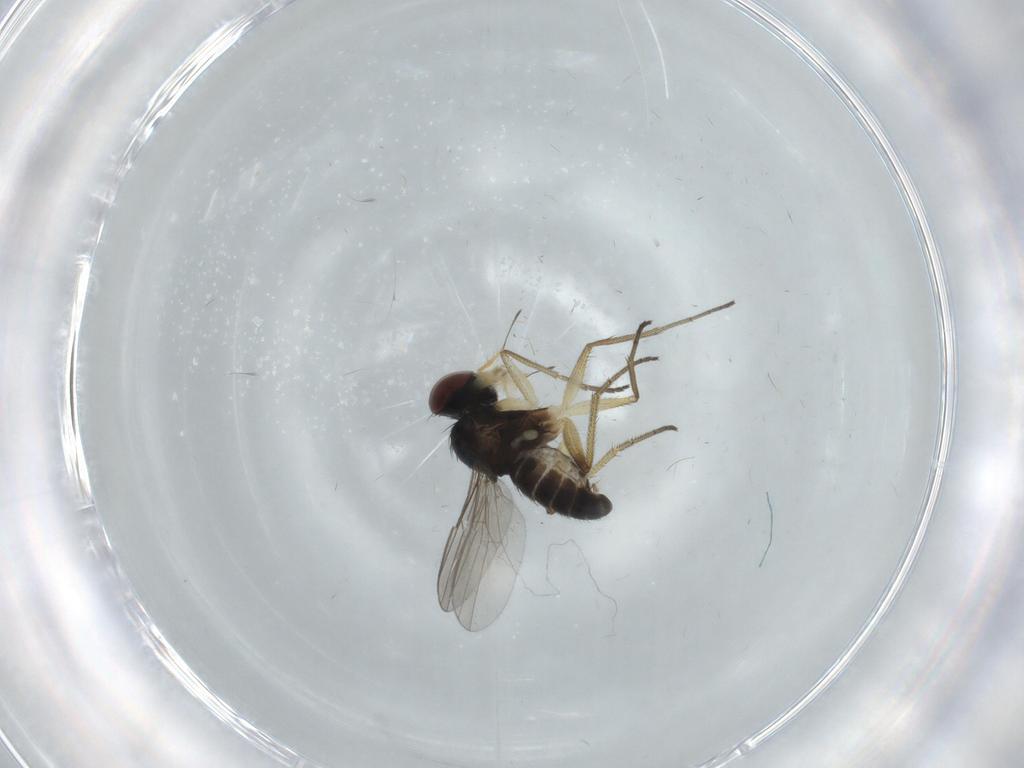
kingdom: Animalia
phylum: Arthropoda
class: Insecta
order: Diptera
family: Dolichopodidae
